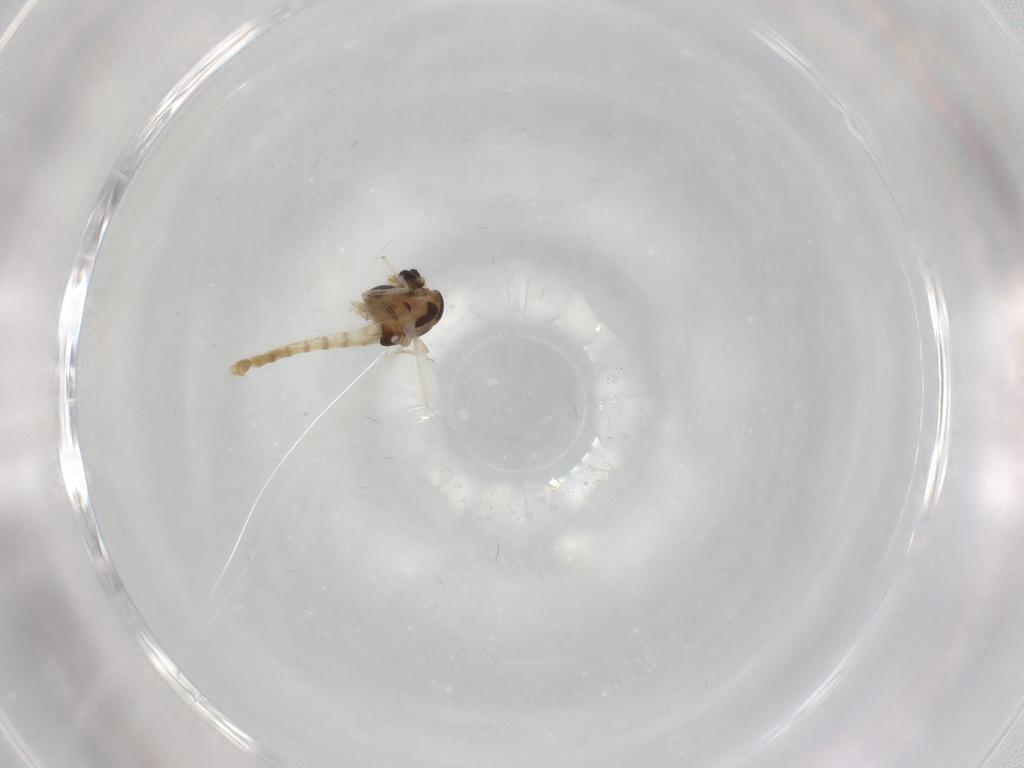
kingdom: Animalia
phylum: Arthropoda
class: Insecta
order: Diptera
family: Chironomidae
